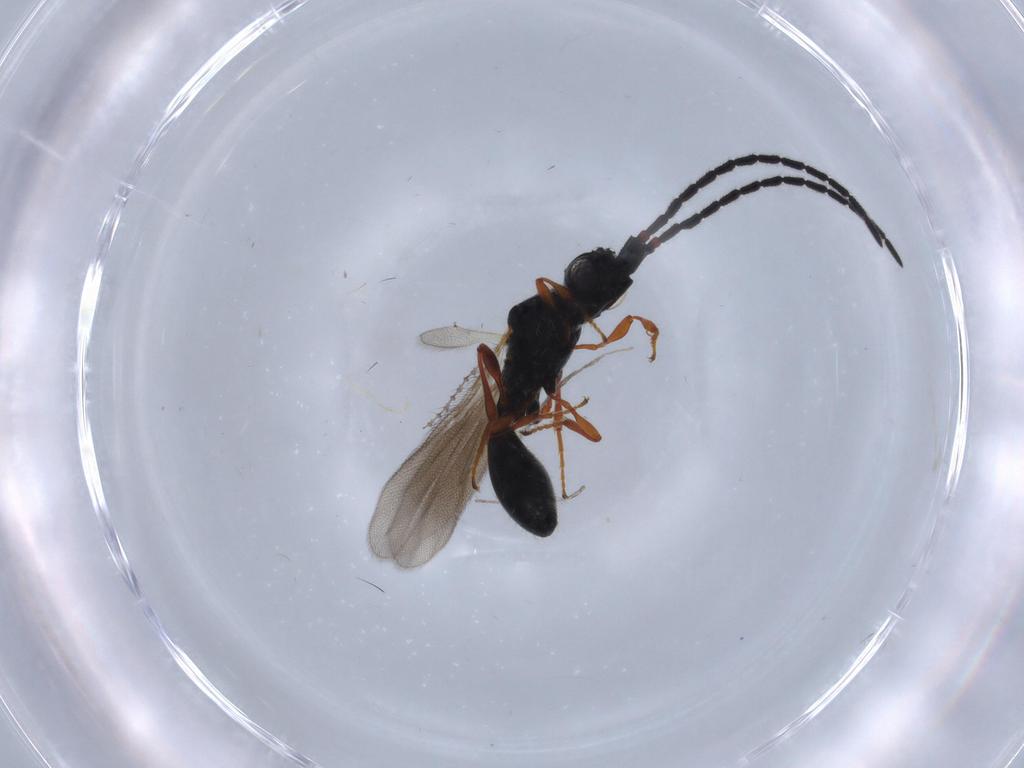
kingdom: Animalia
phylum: Arthropoda
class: Insecta
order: Hymenoptera
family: Diapriidae
